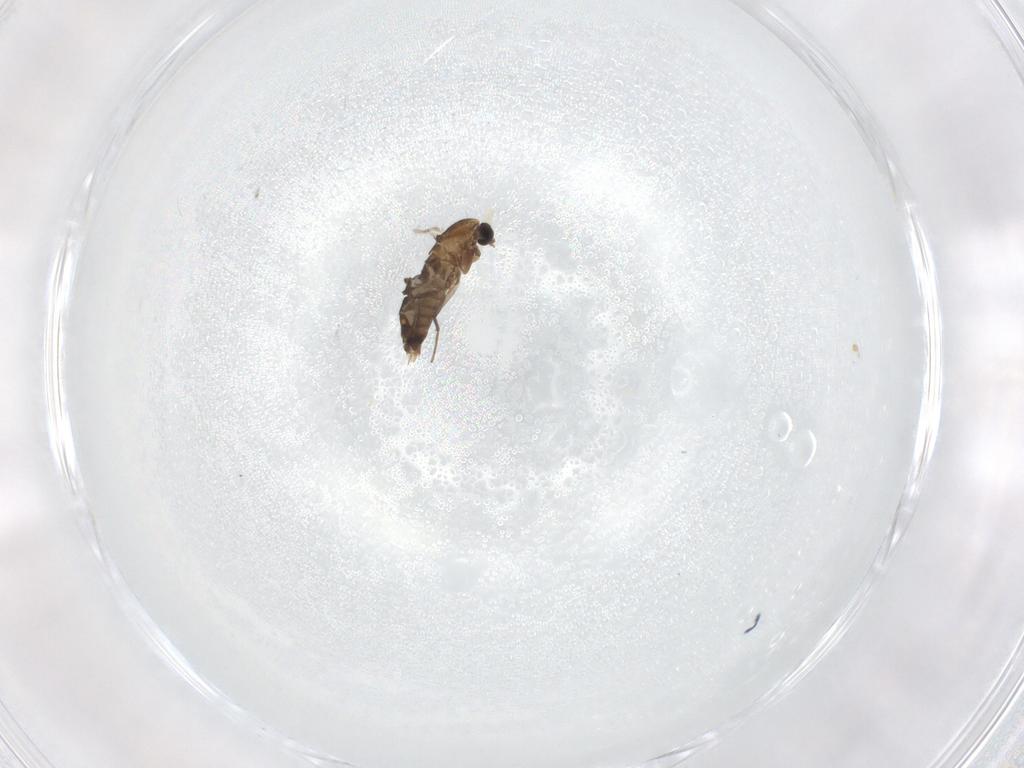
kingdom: Animalia
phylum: Arthropoda
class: Insecta
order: Diptera
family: Chironomidae
